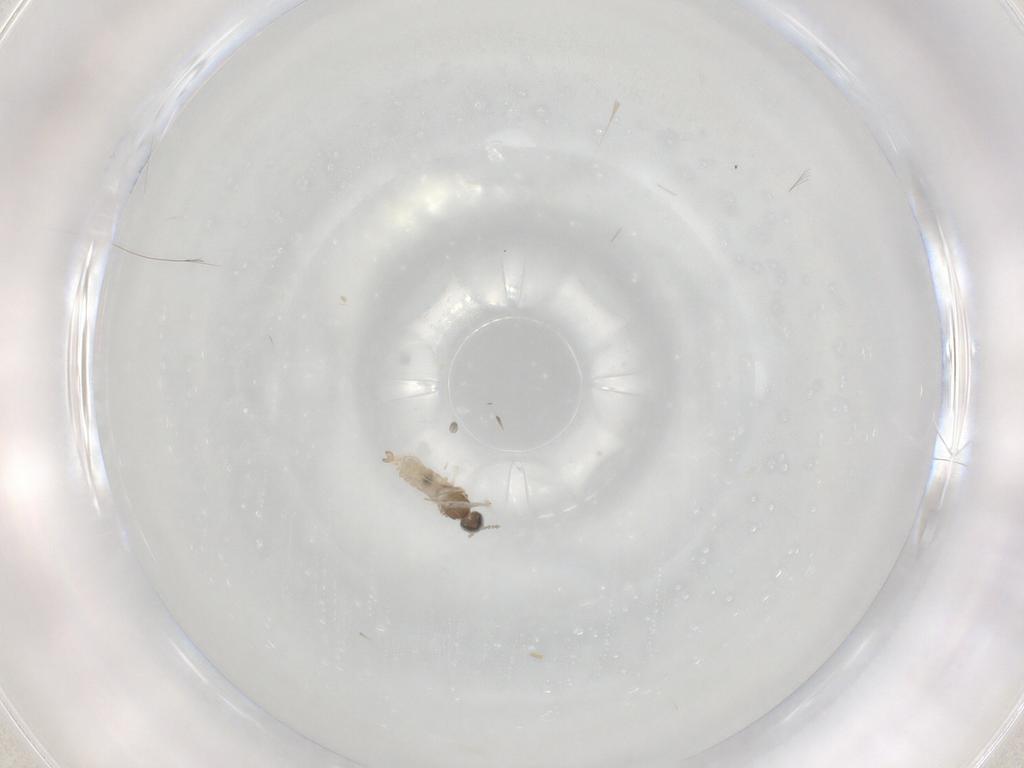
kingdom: Animalia
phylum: Arthropoda
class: Insecta
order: Diptera
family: Cecidomyiidae
